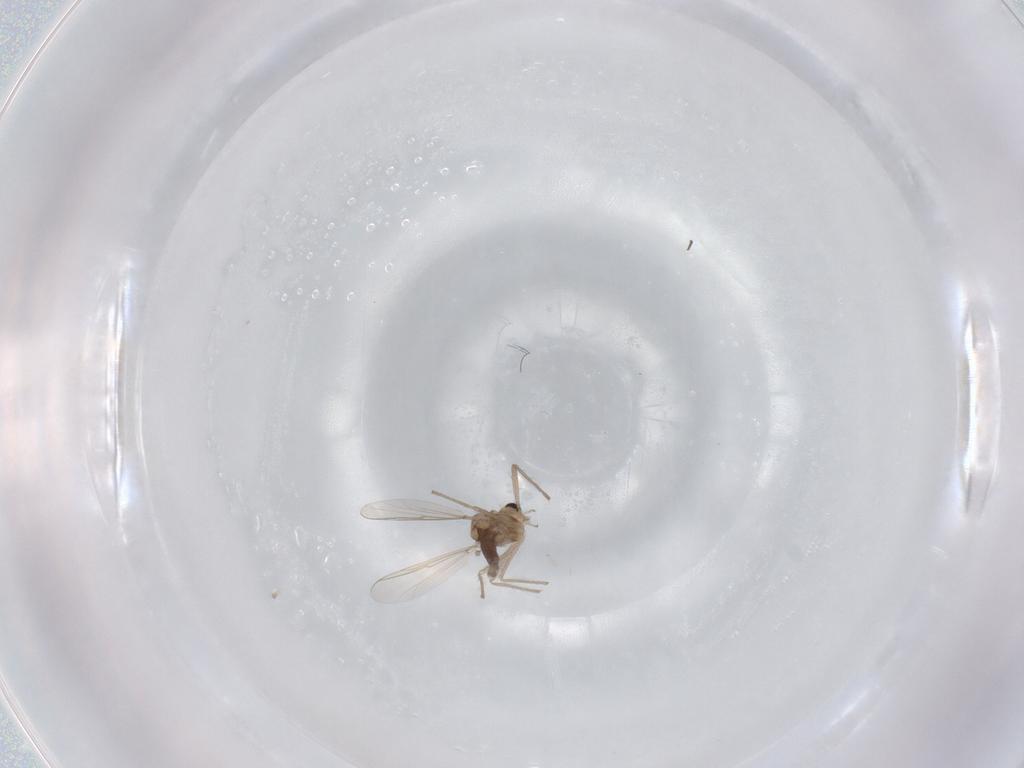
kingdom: Animalia
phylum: Arthropoda
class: Insecta
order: Diptera
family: Chironomidae
